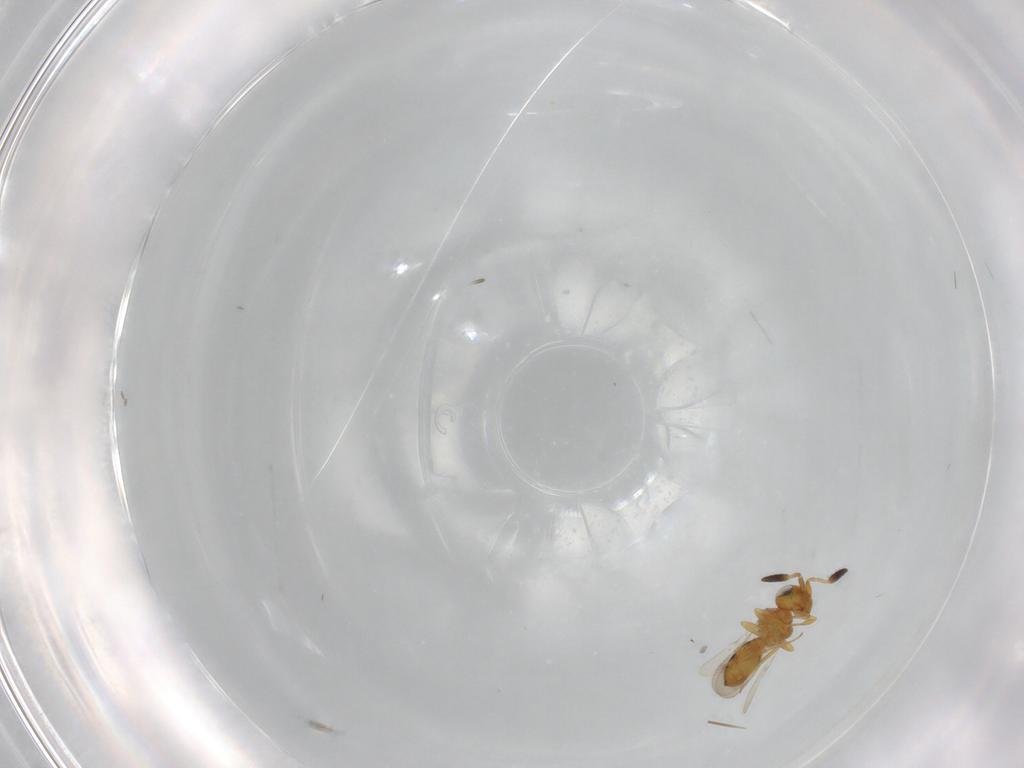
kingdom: Animalia
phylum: Arthropoda
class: Insecta
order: Hymenoptera
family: Scelionidae
